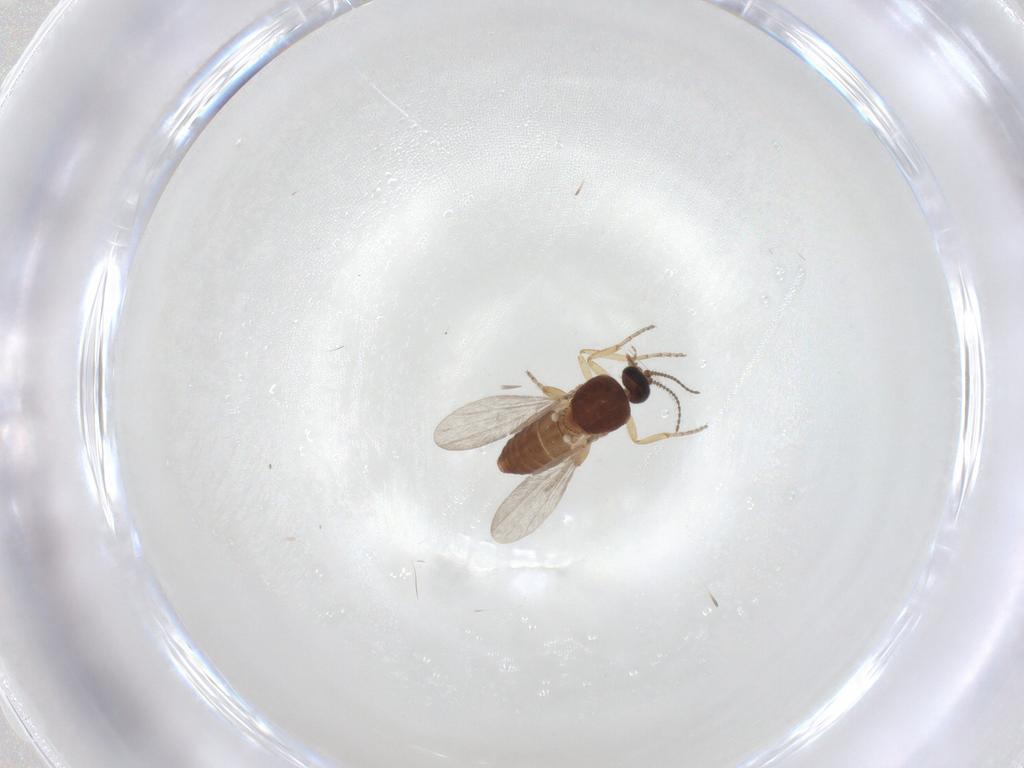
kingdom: Animalia
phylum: Arthropoda
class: Insecta
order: Diptera
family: Ceratopogonidae
